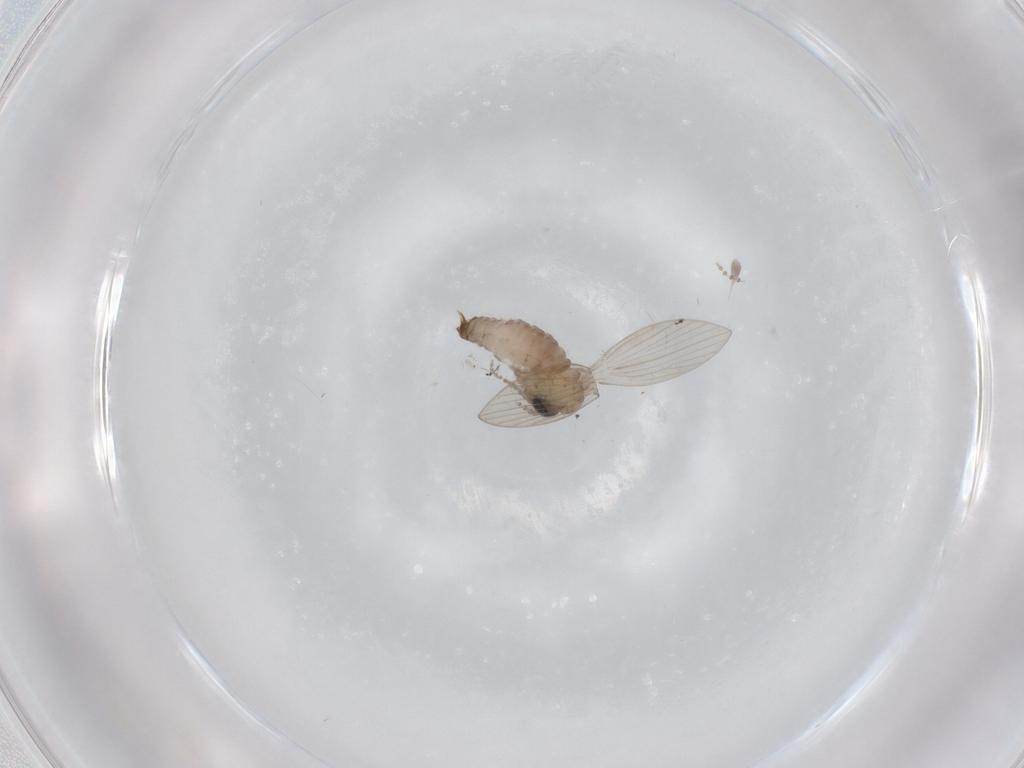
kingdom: Animalia
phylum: Arthropoda
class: Insecta
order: Diptera
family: Psychodidae
